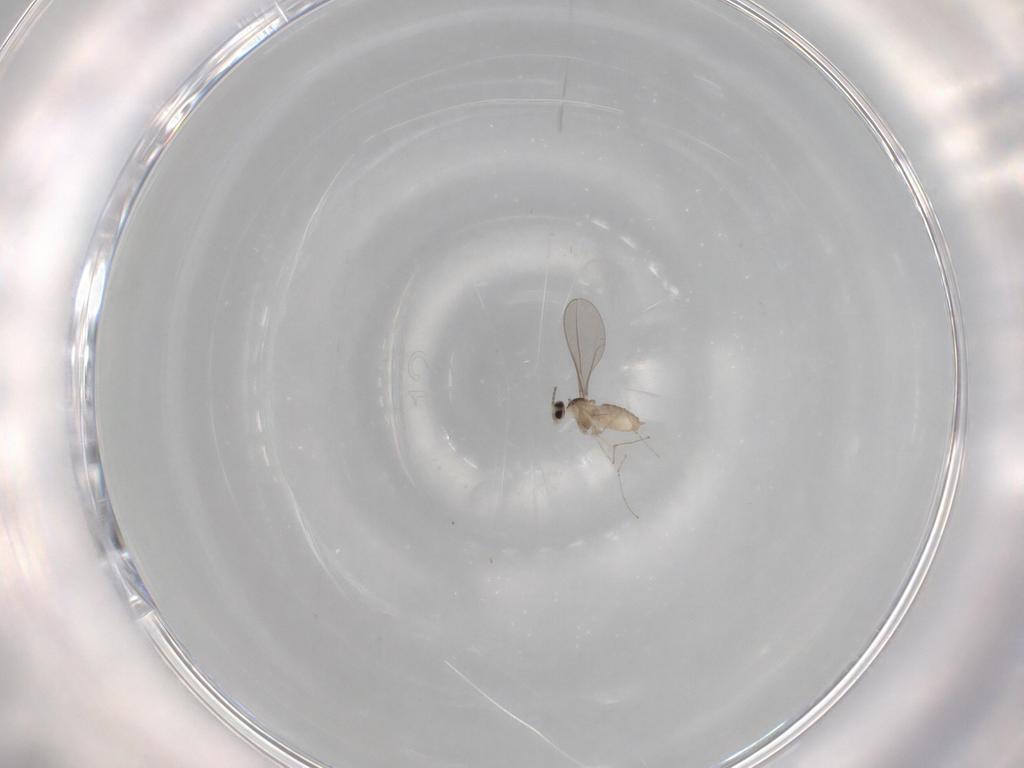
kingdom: Animalia
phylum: Arthropoda
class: Insecta
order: Diptera
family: Cecidomyiidae
